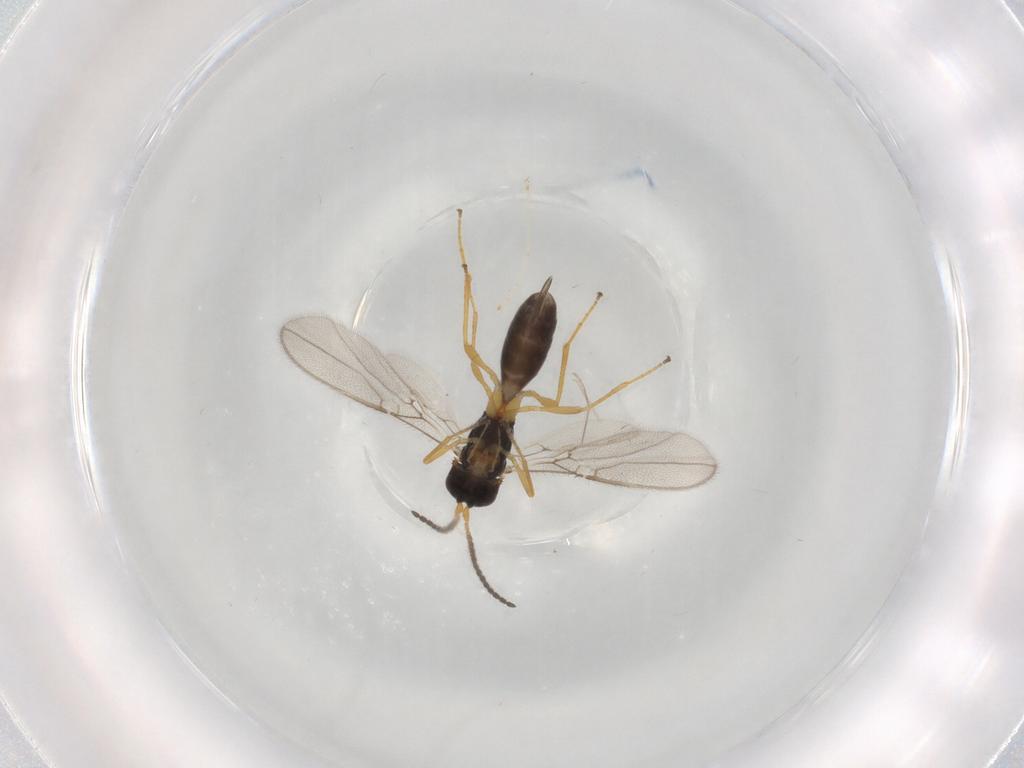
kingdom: Animalia
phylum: Arthropoda
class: Insecta
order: Hymenoptera
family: Braconidae
